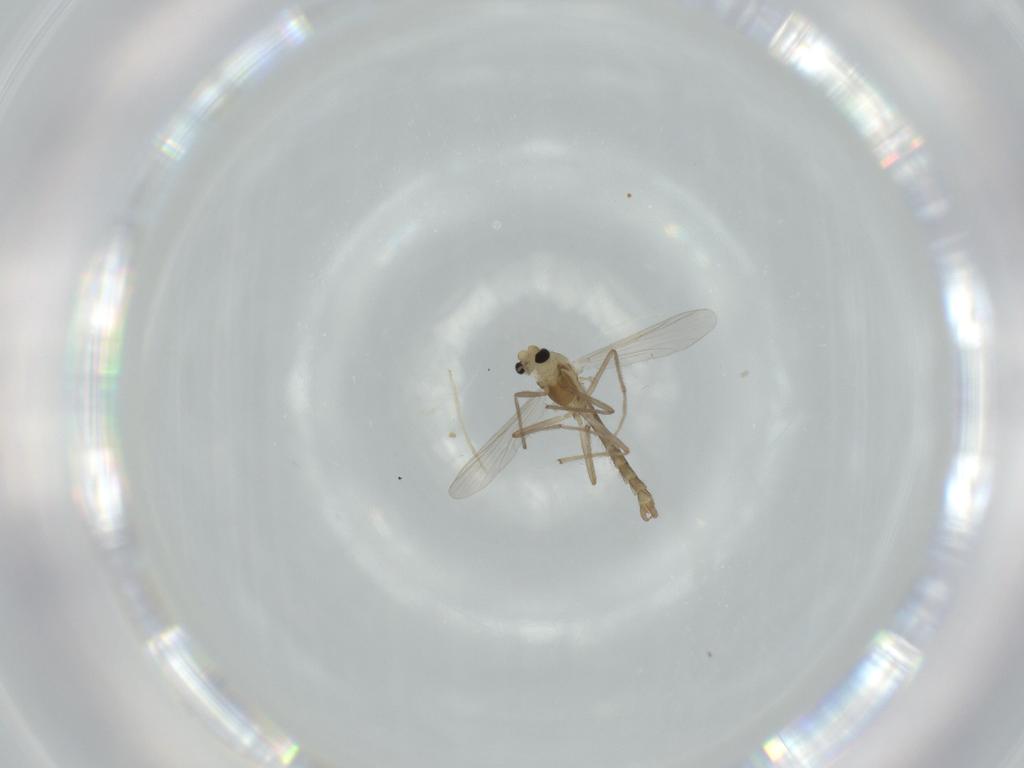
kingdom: Animalia
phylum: Arthropoda
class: Insecta
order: Diptera
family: Chironomidae
